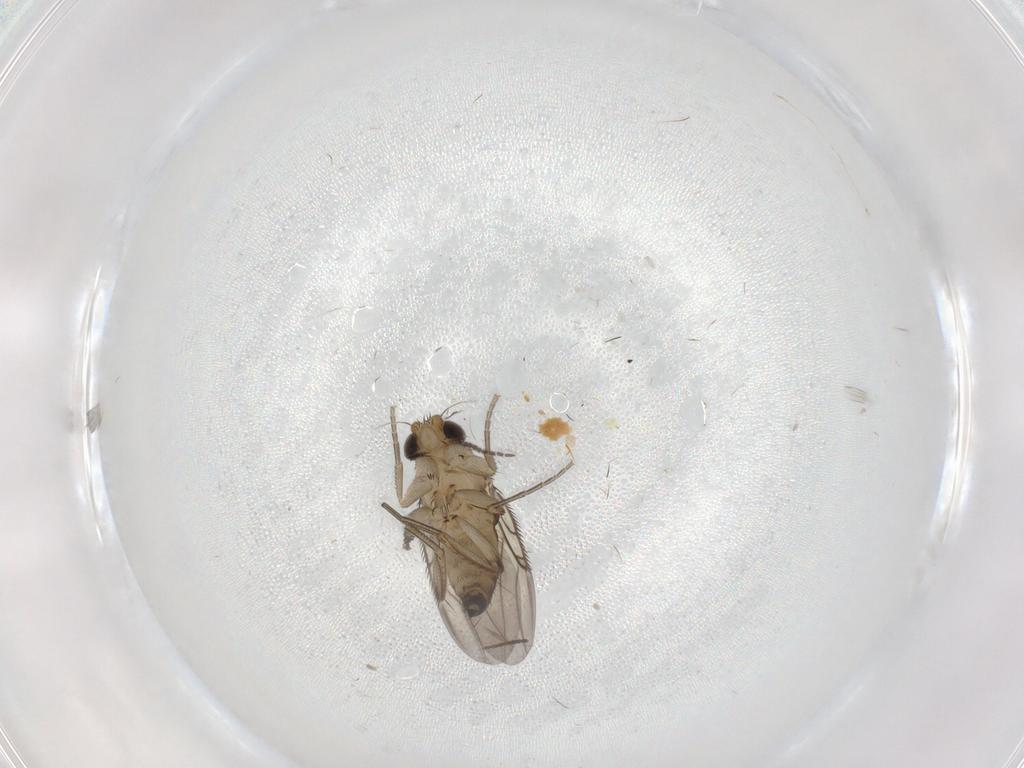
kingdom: Animalia
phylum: Arthropoda
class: Insecta
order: Diptera
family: Phoridae
